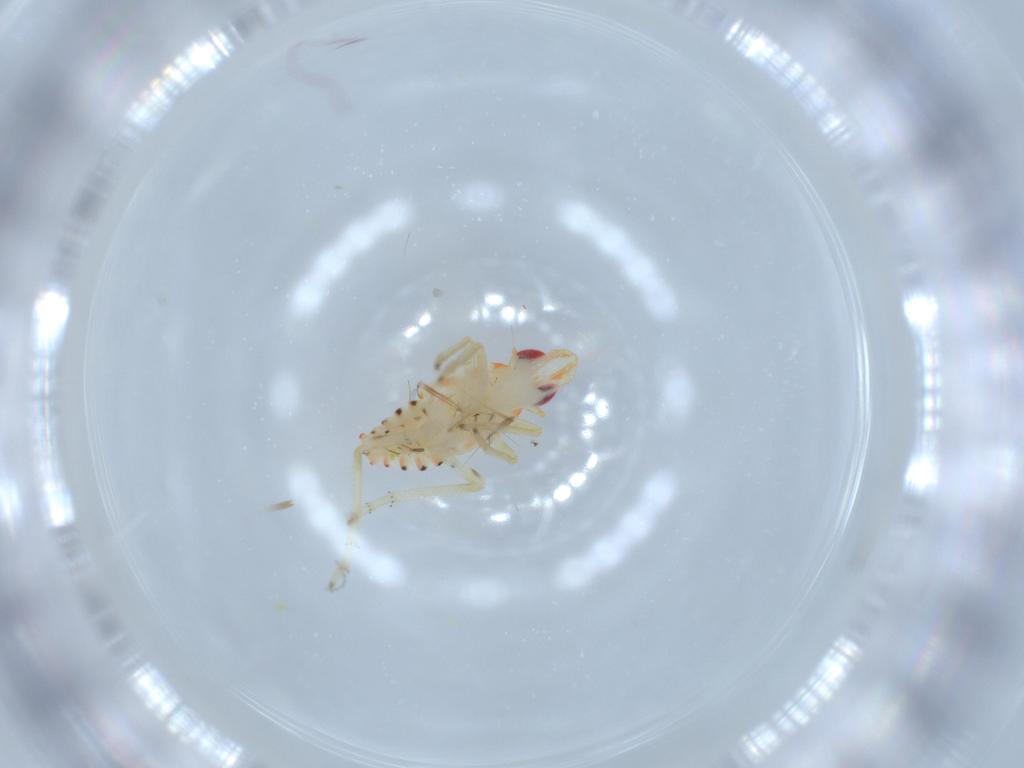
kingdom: Animalia
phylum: Arthropoda
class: Insecta
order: Hemiptera
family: Tropiduchidae
